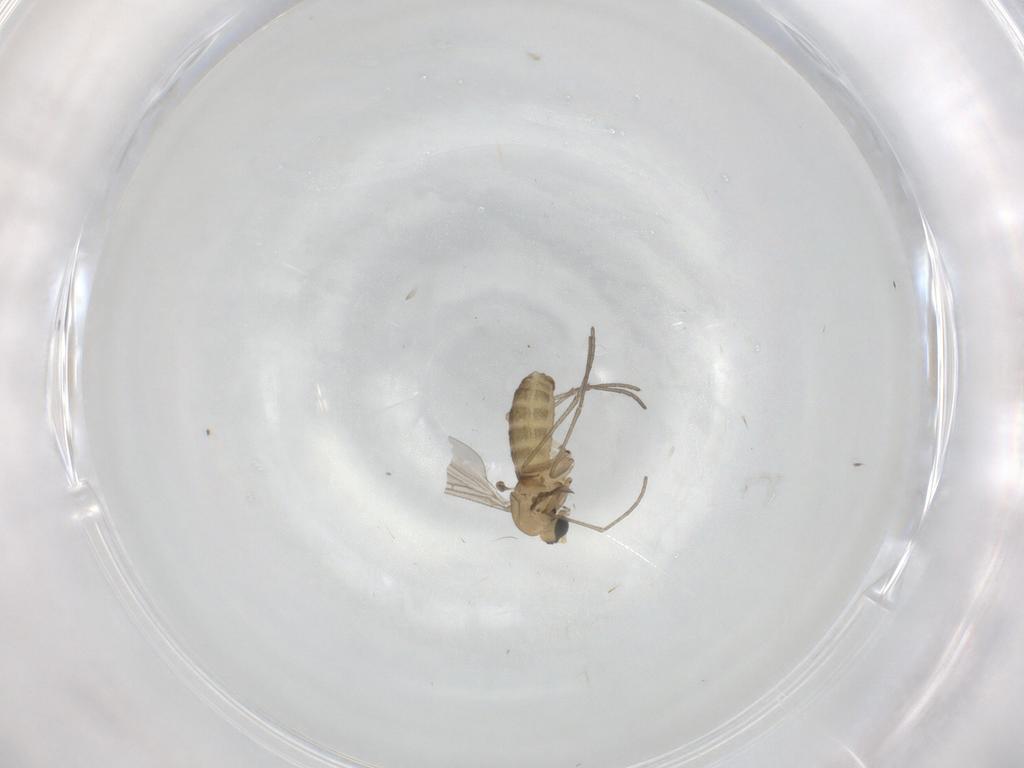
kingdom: Animalia
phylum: Arthropoda
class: Insecta
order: Diptera
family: Sciaridae
